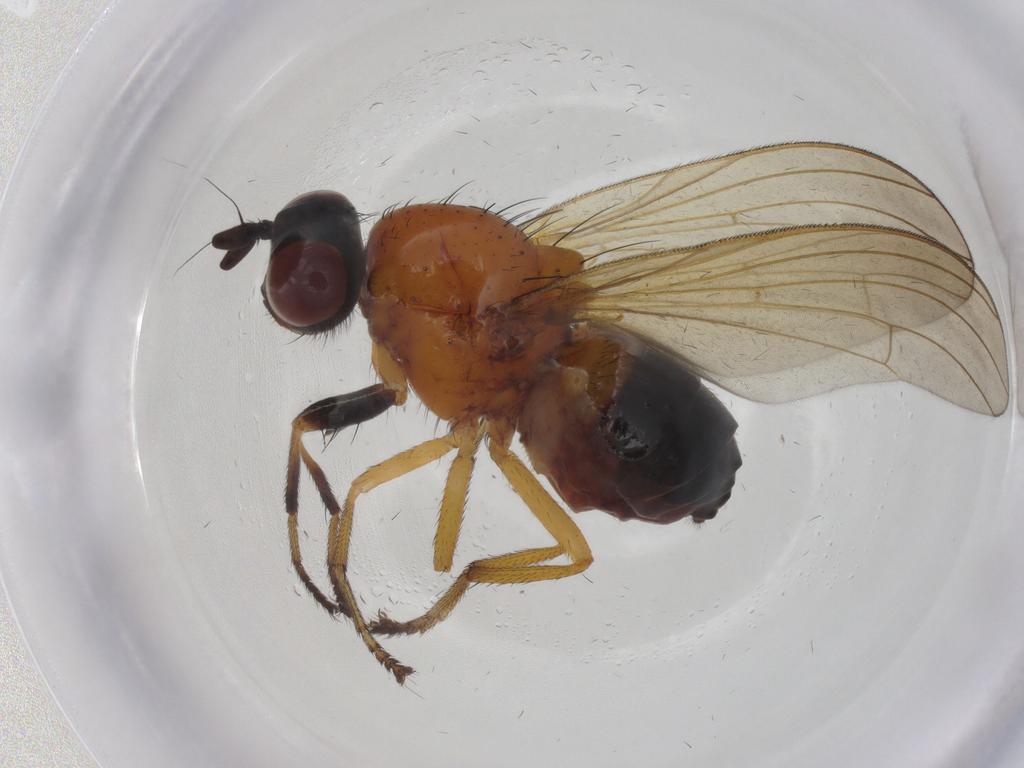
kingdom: Animalia
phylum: Arthropoda
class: Insecta
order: Diptera
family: Lauxaniidae
